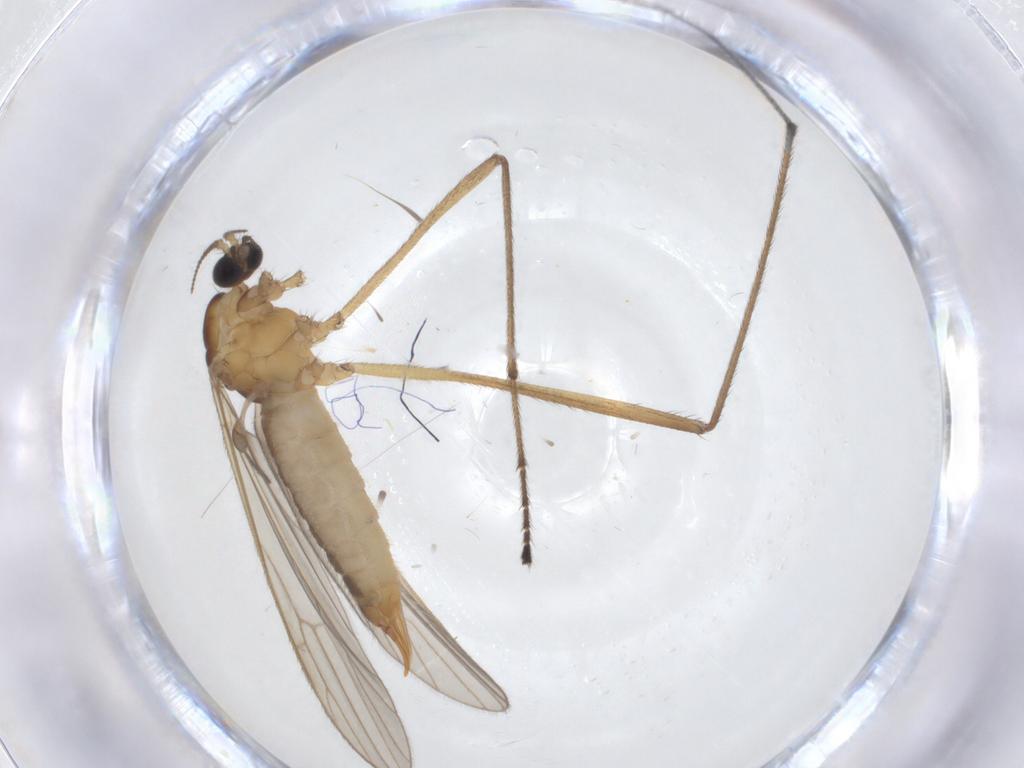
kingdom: Animalia
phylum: Arthropoda
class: Insecta
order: Diptera
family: Limoniidae
